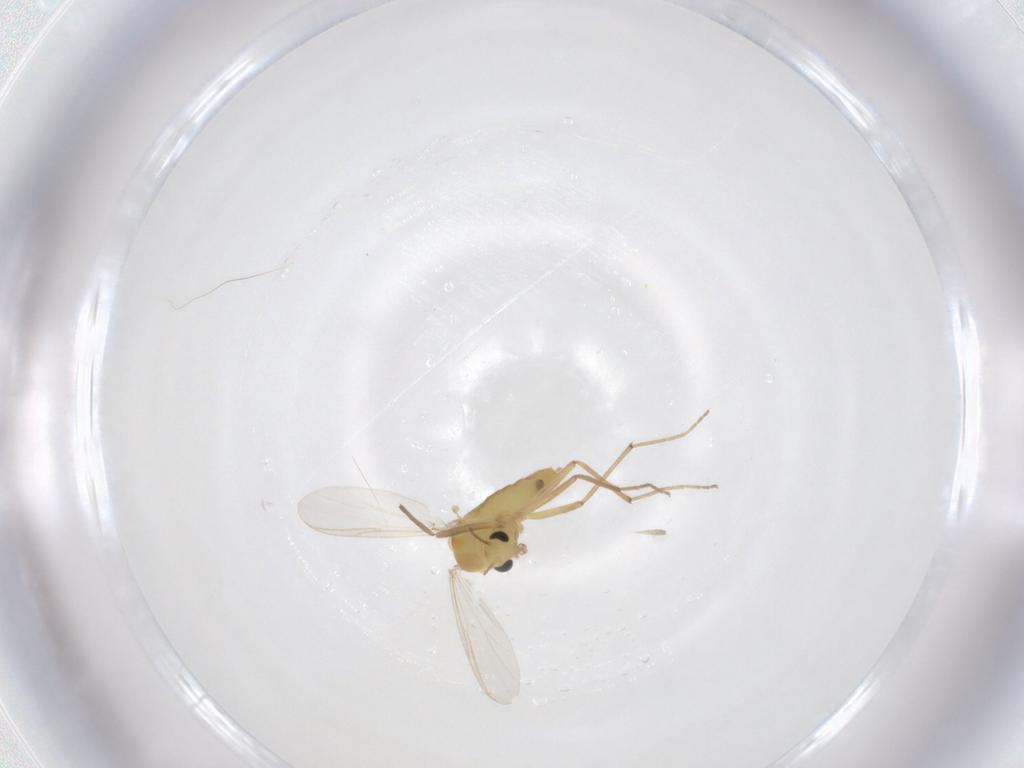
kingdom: Animalia
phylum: Arthropoda
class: Insecta
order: Diptera
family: Chironomidae
